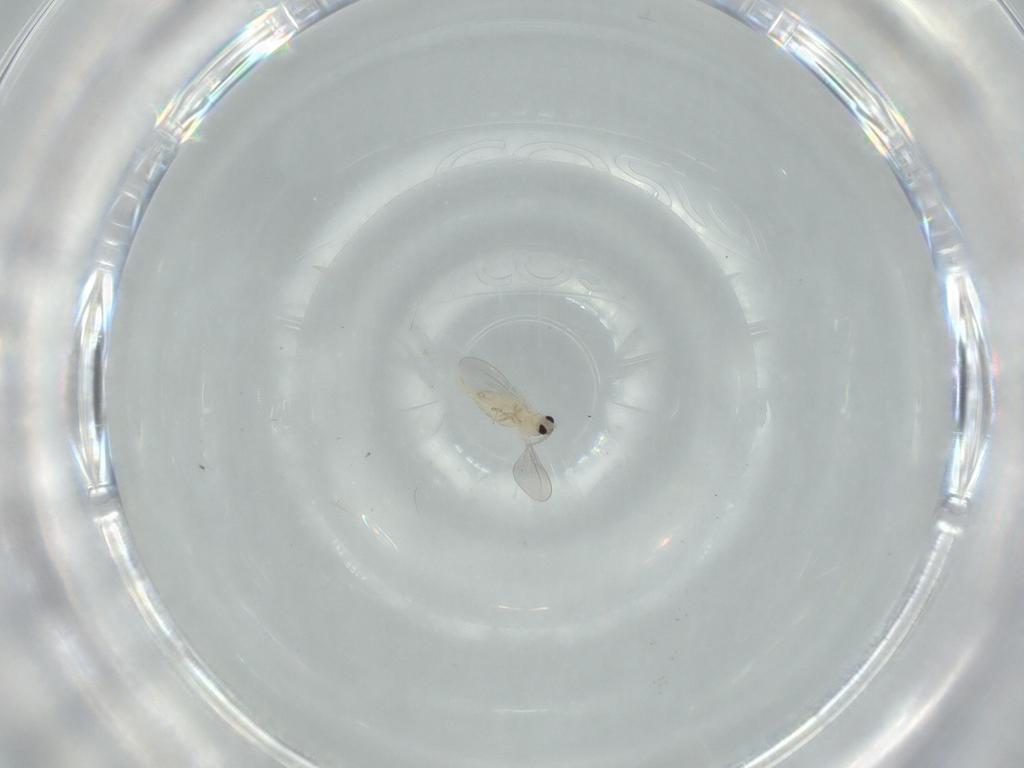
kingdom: Animalia
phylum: Arthropoda
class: Insecta
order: Diptera
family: Cecidomyiidae
